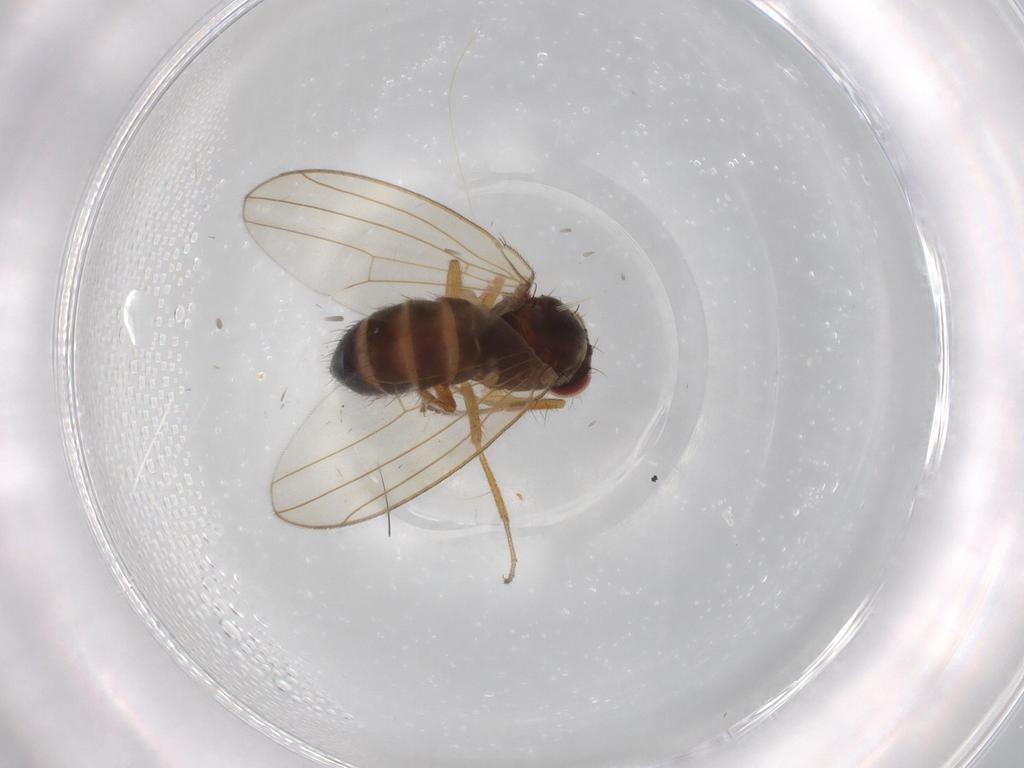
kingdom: Animalia
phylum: Arthropoda
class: Insecta
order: Diptera
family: Drosophilidae
